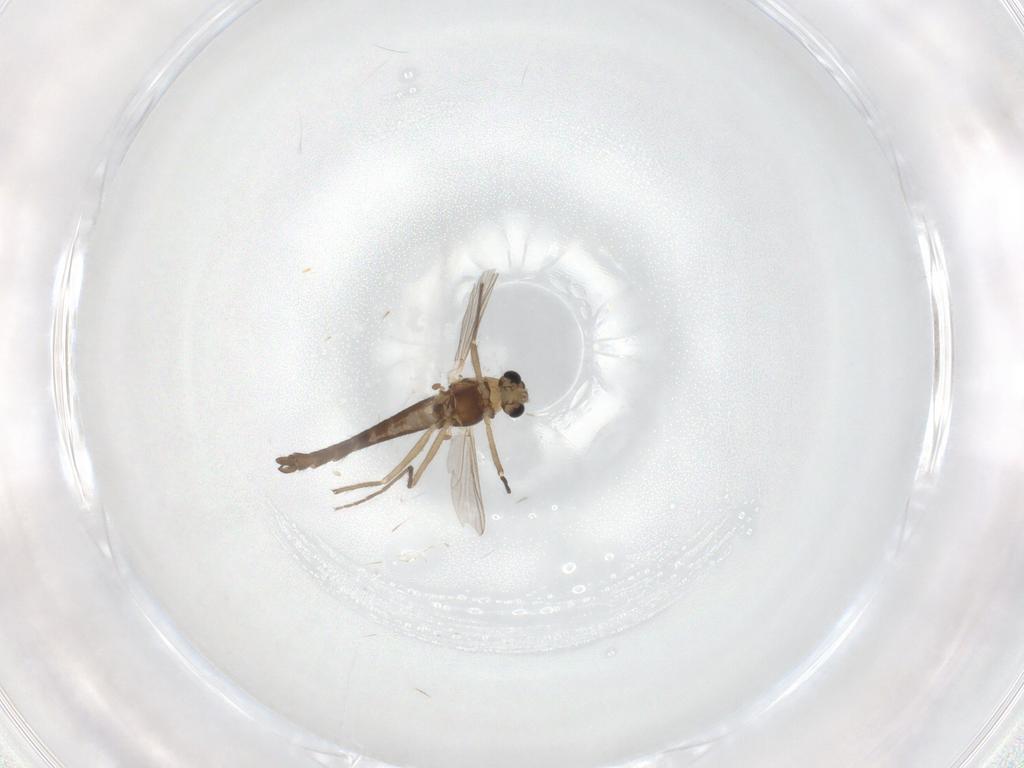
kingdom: Animalia
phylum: Arthropoda
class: Insecta
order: Diptera
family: Chironomidae
